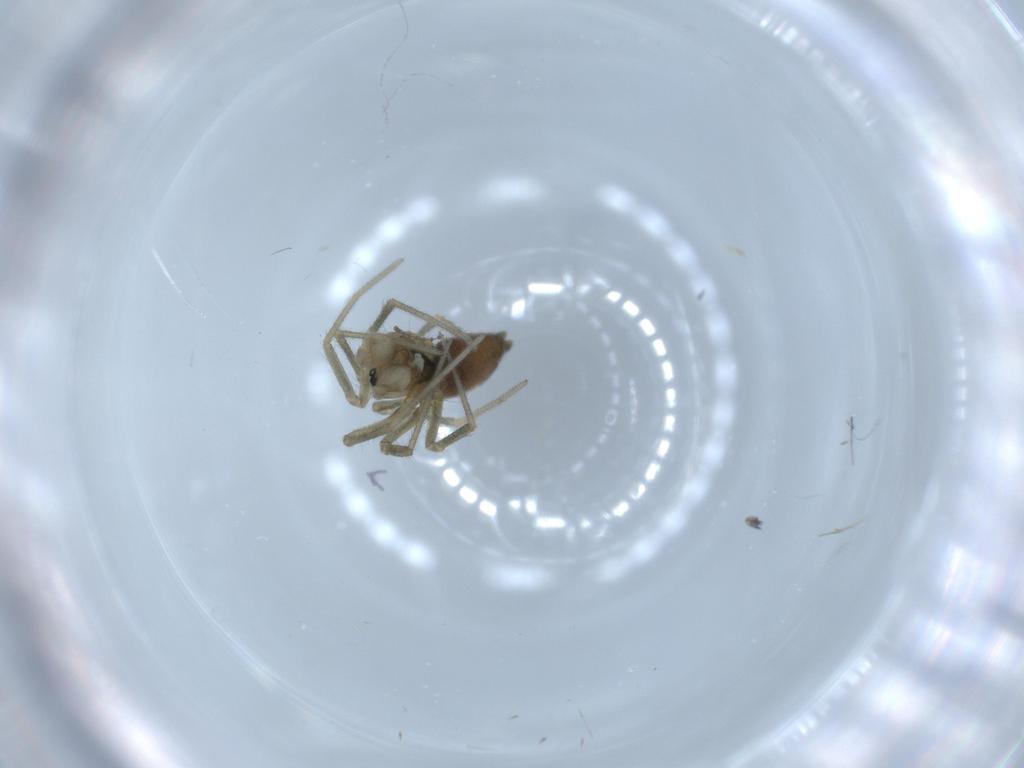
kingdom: Animalia
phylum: Arthropoda
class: Arachnida
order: Araneae
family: Linyphiidae
